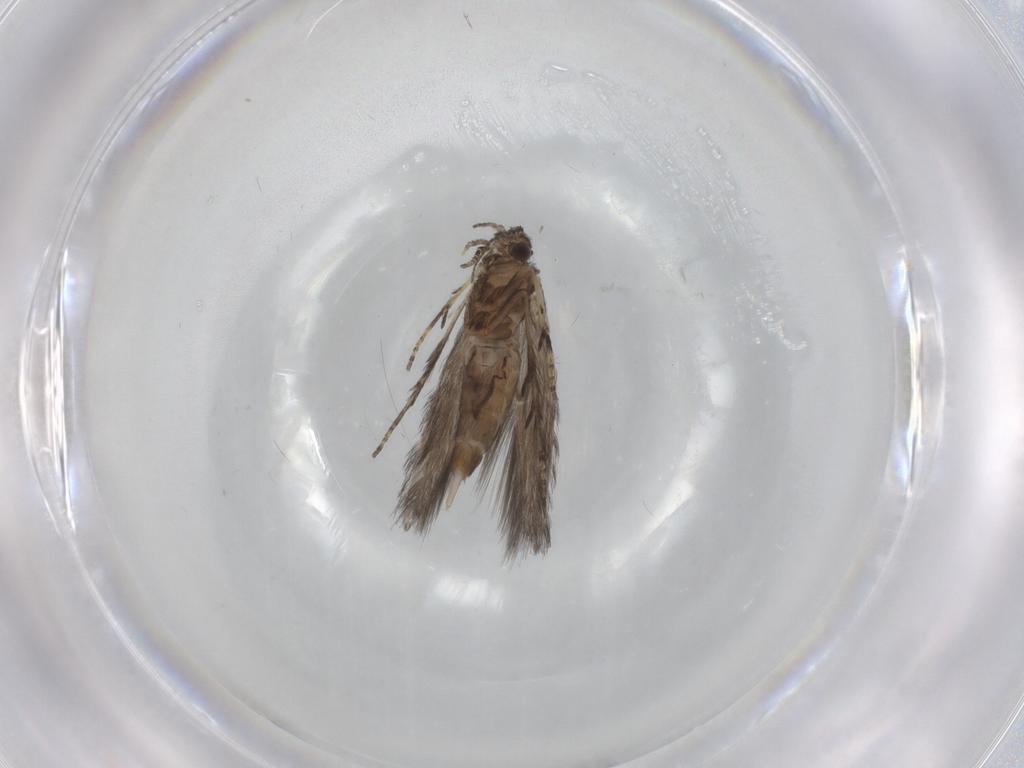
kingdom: Animalia
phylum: Arthropoda
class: Insecta
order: Trichoptera
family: Hydroptilidae
